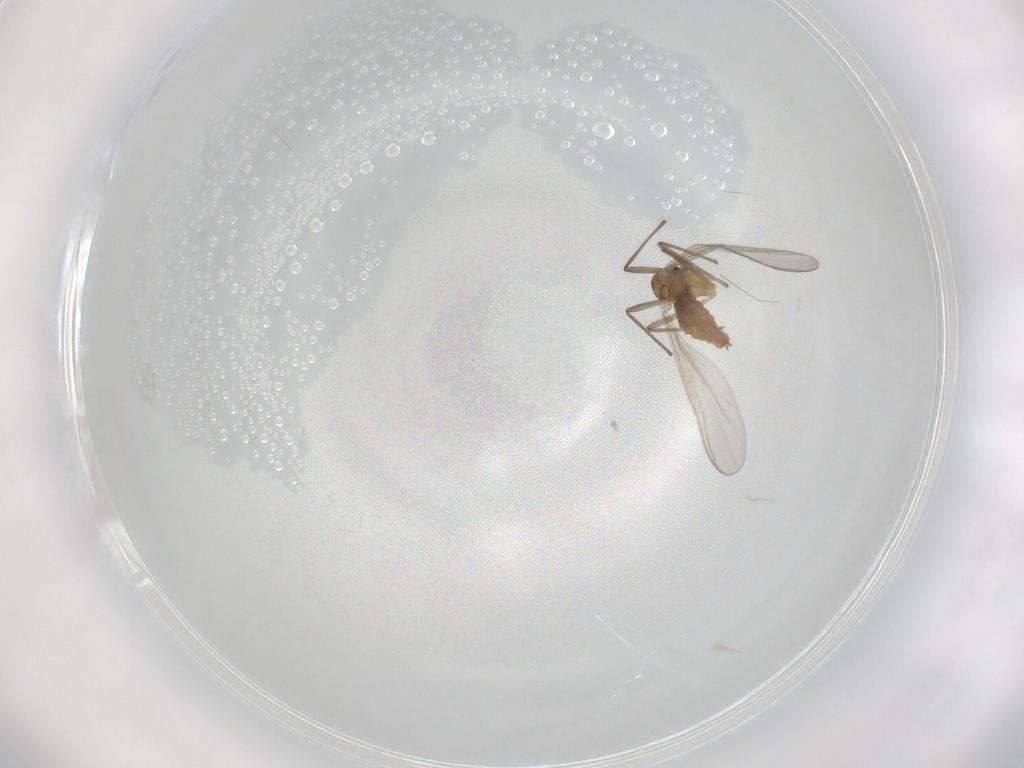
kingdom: Animalia
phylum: Arthropoda
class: Insecta
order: Diptera
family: Chironomidae
